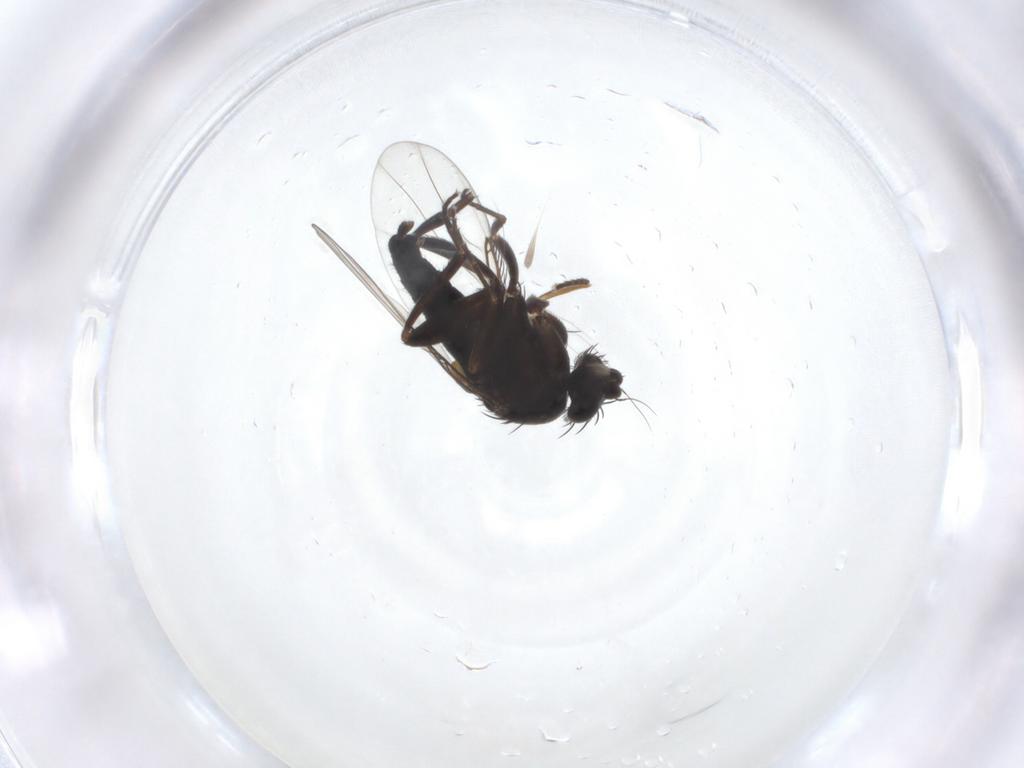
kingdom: Animalia
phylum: Arthropoda
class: Insecta
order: Diptera
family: Phoridae
